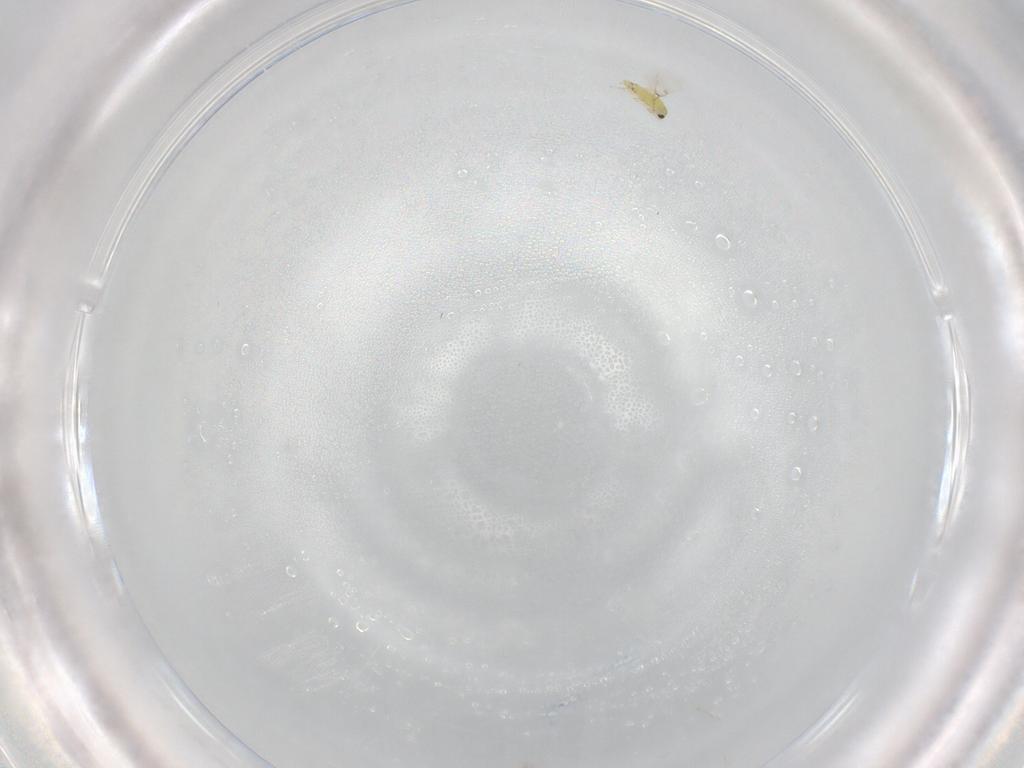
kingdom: Animalia
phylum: Arthropoda
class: Insecta
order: Hymenoptera
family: Trichogrammatidae
